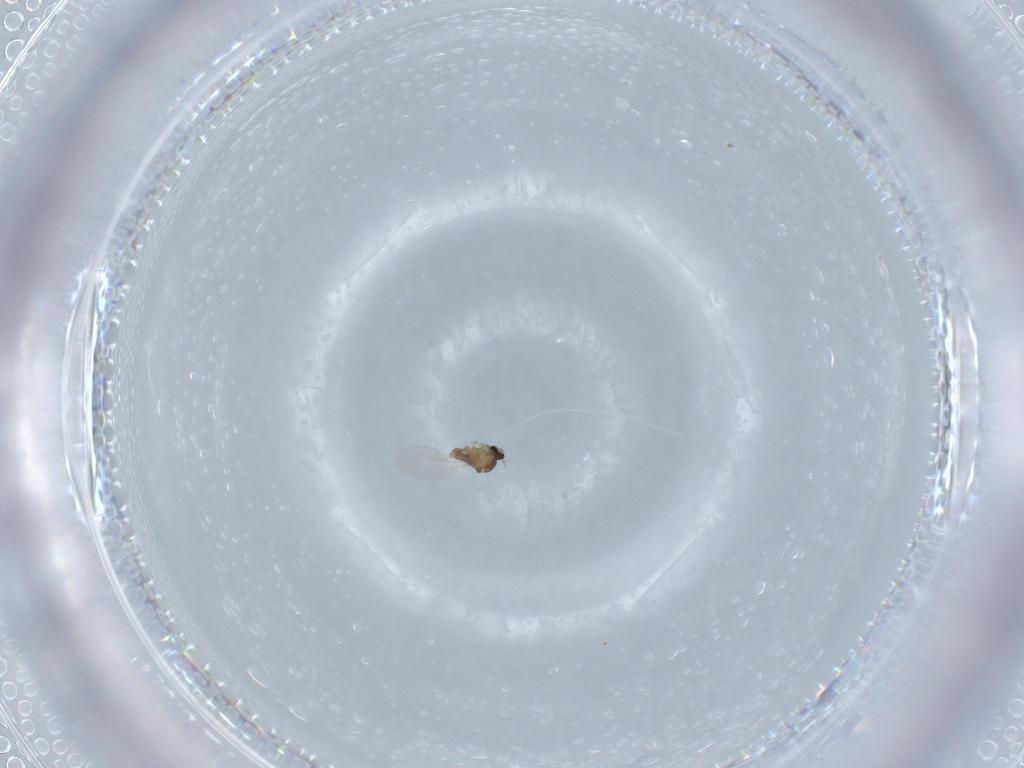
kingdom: Animalia
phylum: Arthropoda
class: Insecta
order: Diptera
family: Cecidomyiidae
